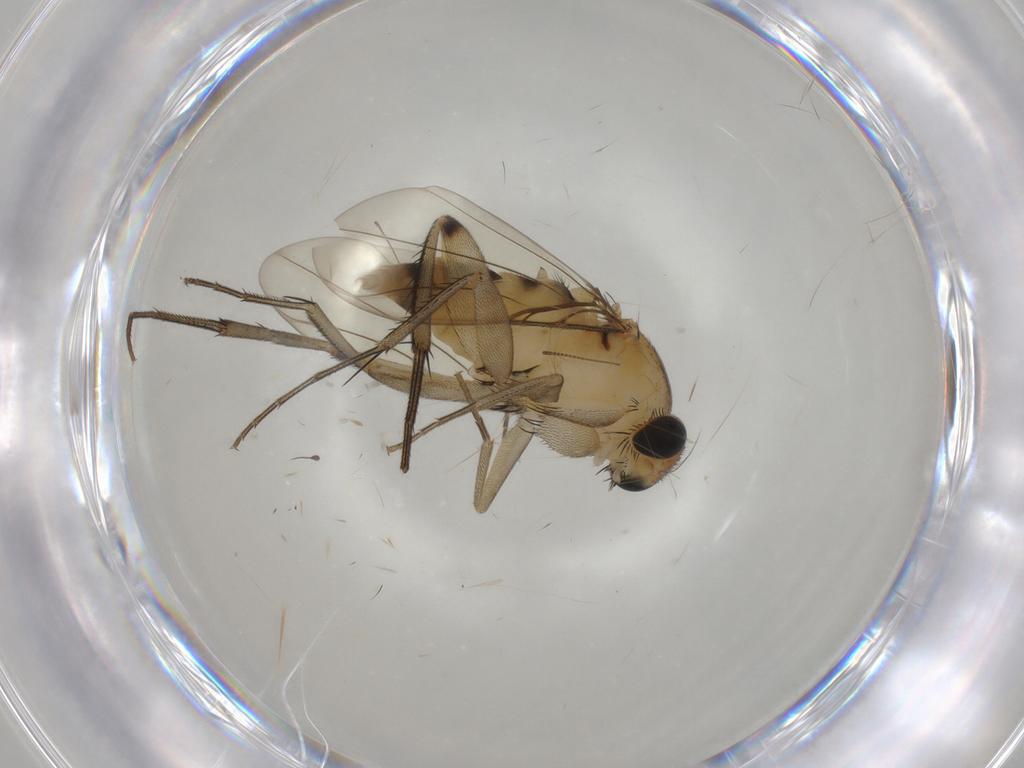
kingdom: Animalia
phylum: Arthropoda
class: Insecta
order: Diptera
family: Phoridae
